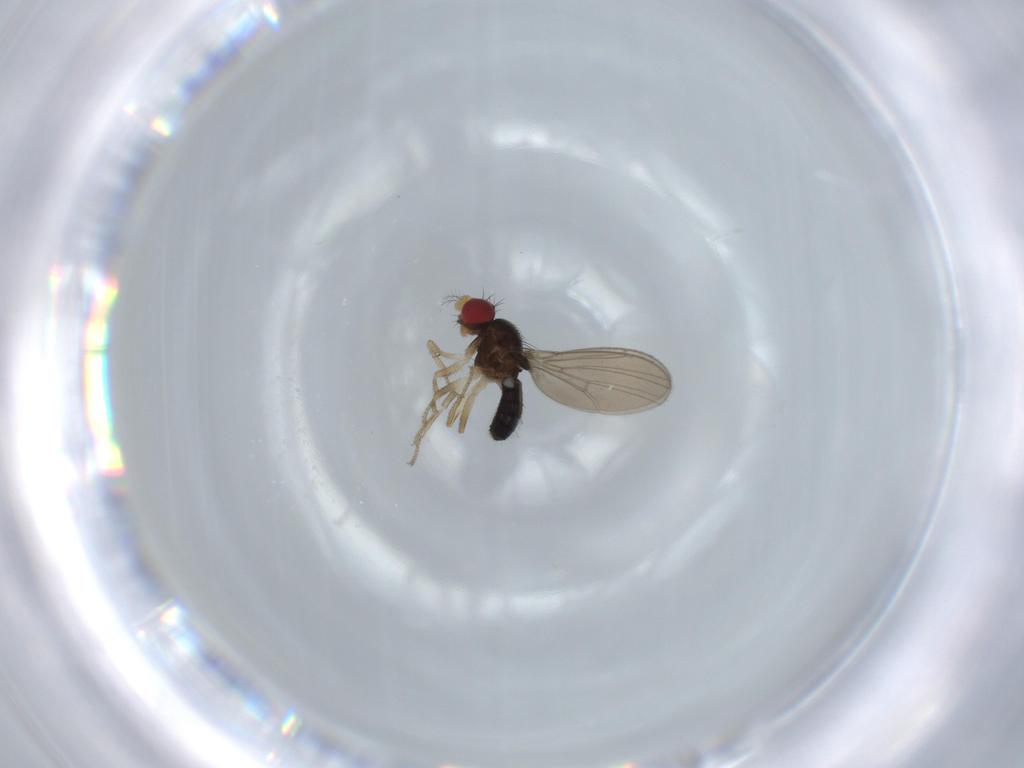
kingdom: Animalia
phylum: Arthropoda
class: Insecta
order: Diptera
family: Drosophilidae
